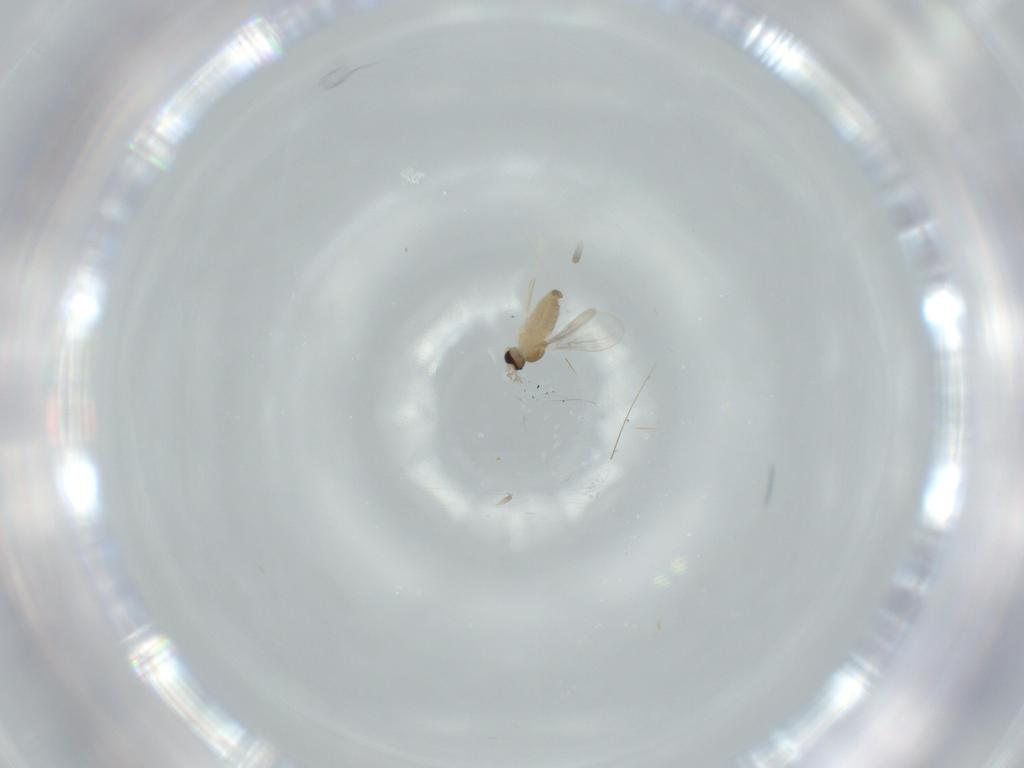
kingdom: Animalia
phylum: Arthropoda
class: Insecta
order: Diptera
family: Cecidomyiidae
